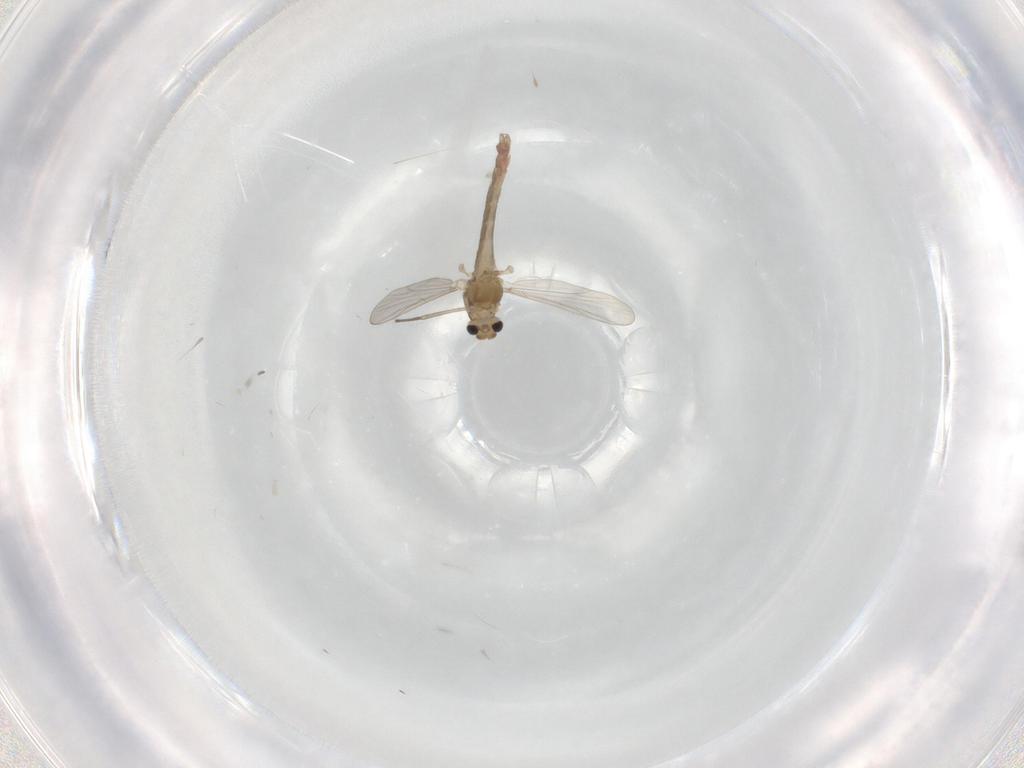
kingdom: Animalia
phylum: Arthropoda
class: Insecta
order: Diptera
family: Chironomidae
